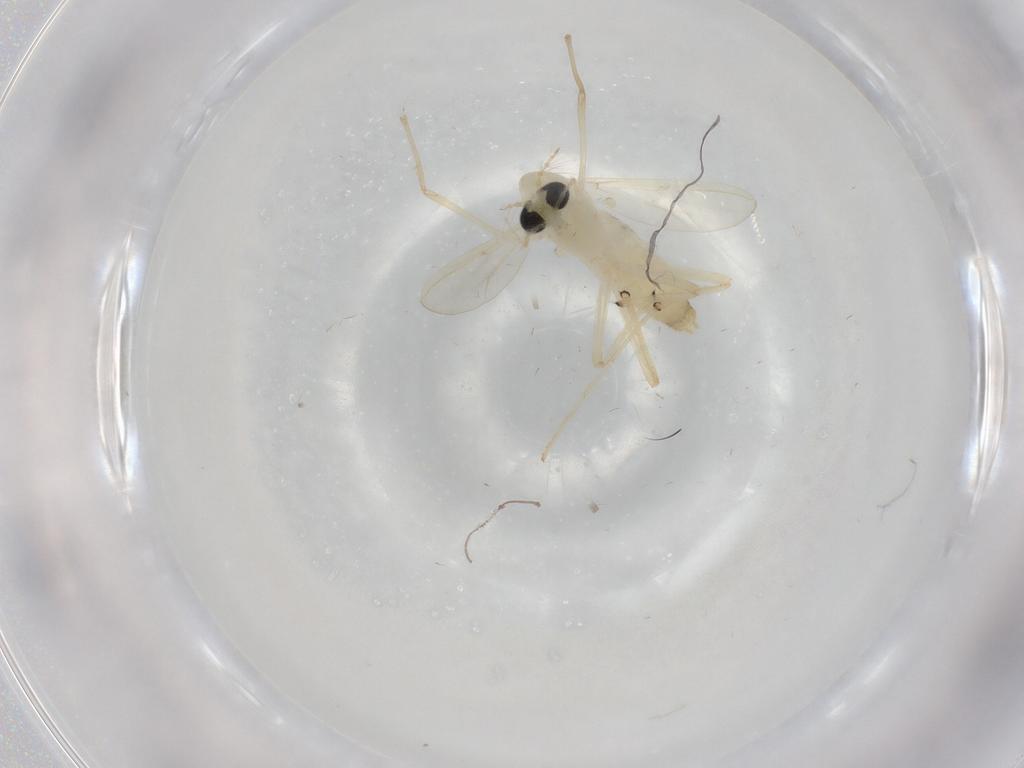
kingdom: Animalia
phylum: Arthropoda
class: Insecta
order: Diptera
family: Chironomidae
